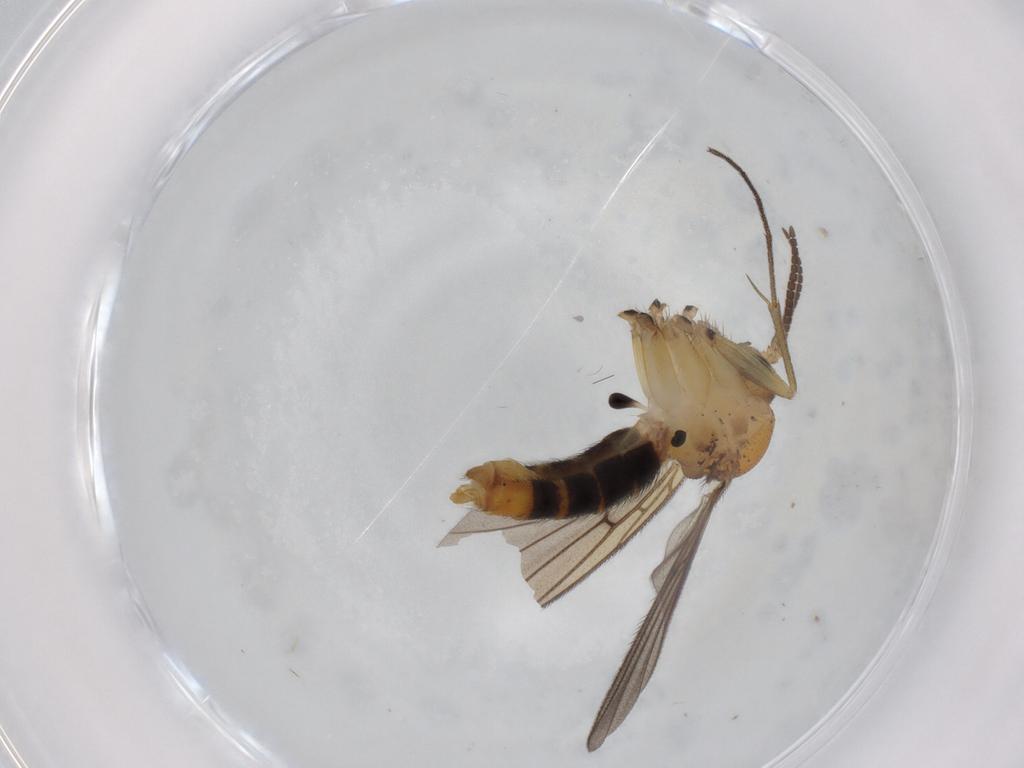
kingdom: Animalia
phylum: Arthropoda
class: Insecta
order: Diptera
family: Mycetophilidae
